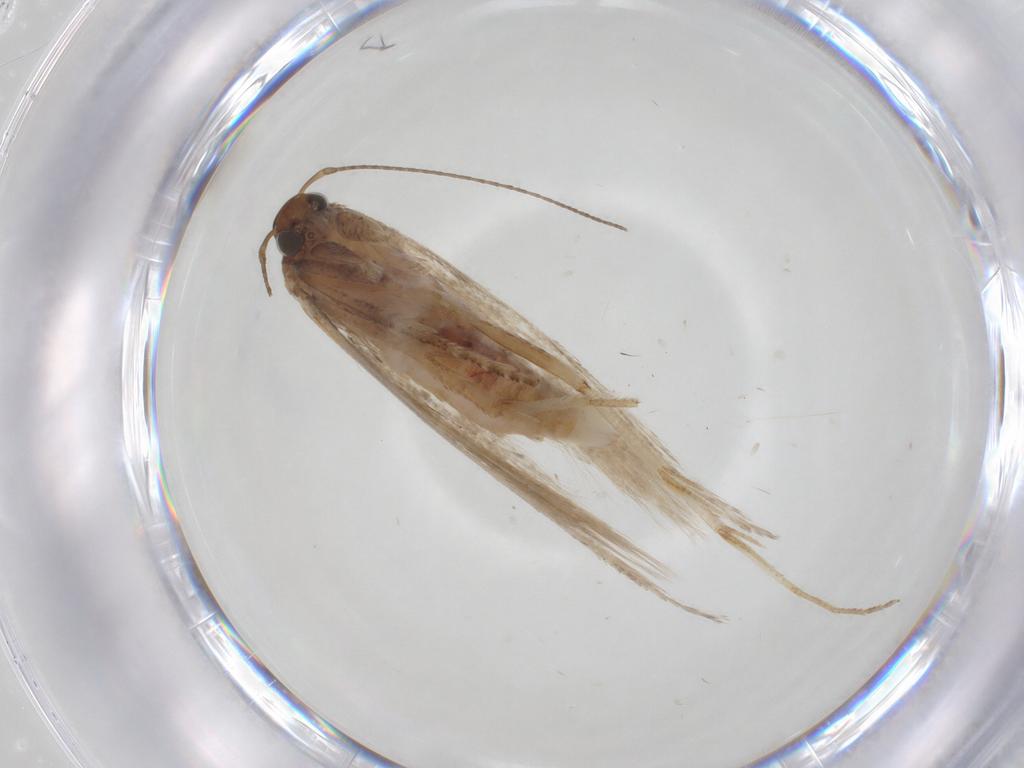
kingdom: Animalia
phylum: Arthropoda
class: Insecta
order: Lepidoptera
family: Gelechiidae
